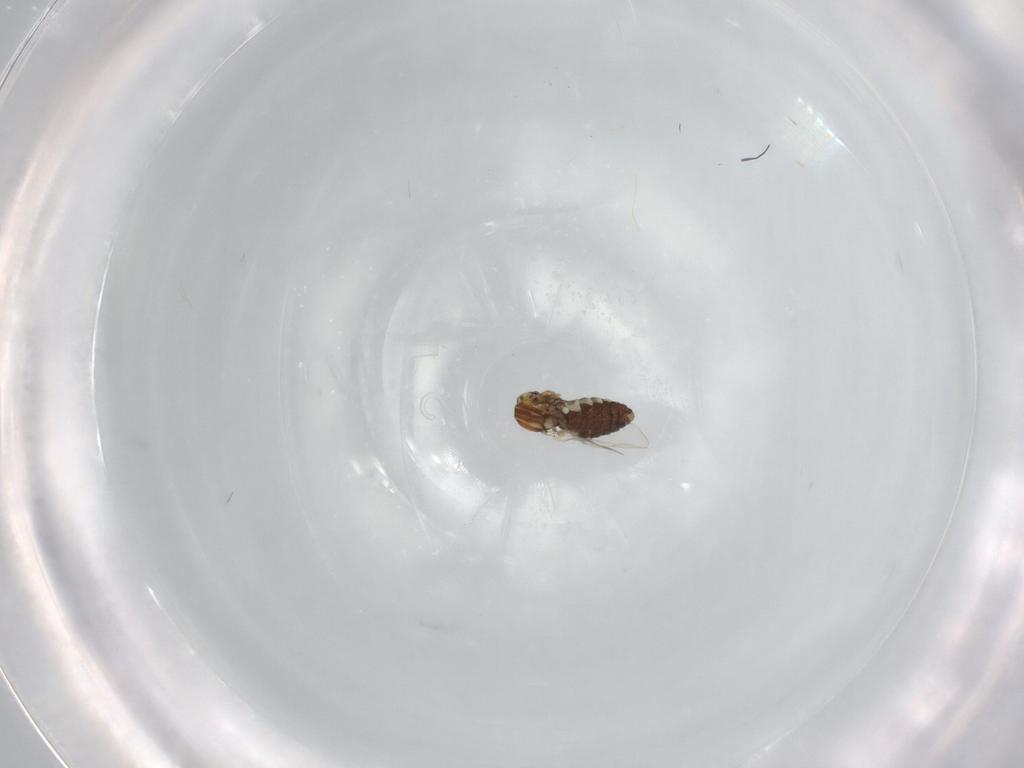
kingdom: Animalia
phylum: Arthropoda
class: Insecta
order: Diptera
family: Ceratopogonidae
